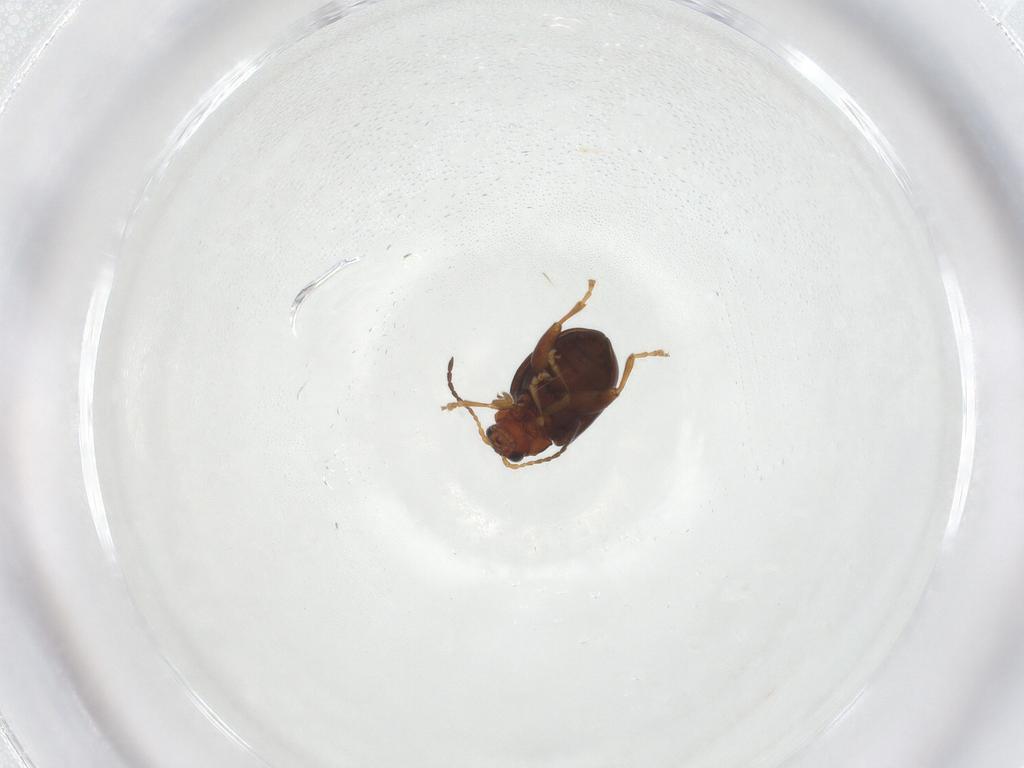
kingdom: Animalia
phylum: Arthropoda
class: Insecta
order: Coleoptera
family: Chrysomelidae
